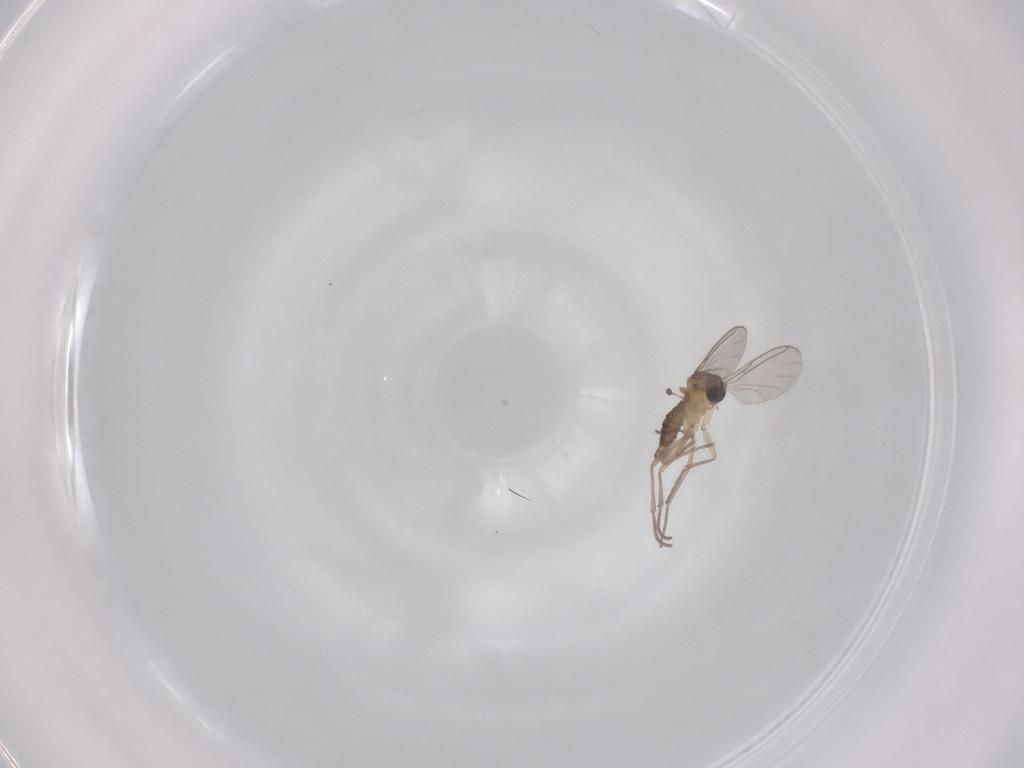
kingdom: Animalia
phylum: Arthropoda
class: Insecta
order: Diptera
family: Sciaridae
